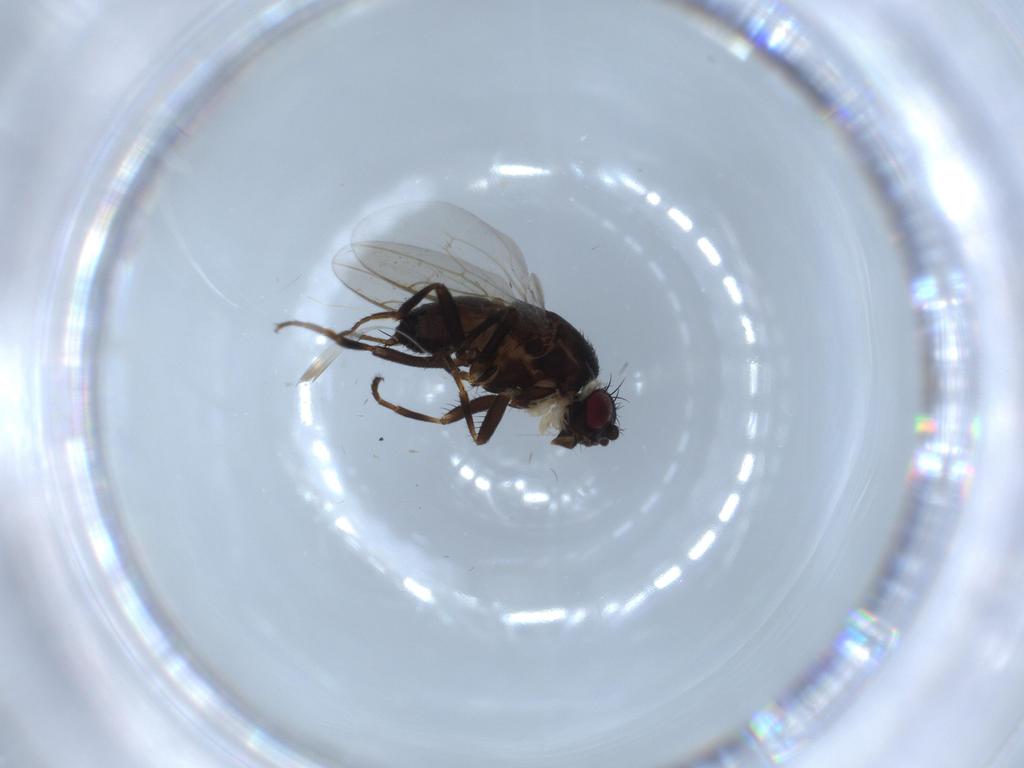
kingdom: Animalia
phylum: Arthropoda
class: Insecta
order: Diptera
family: Sphaeroceridae
